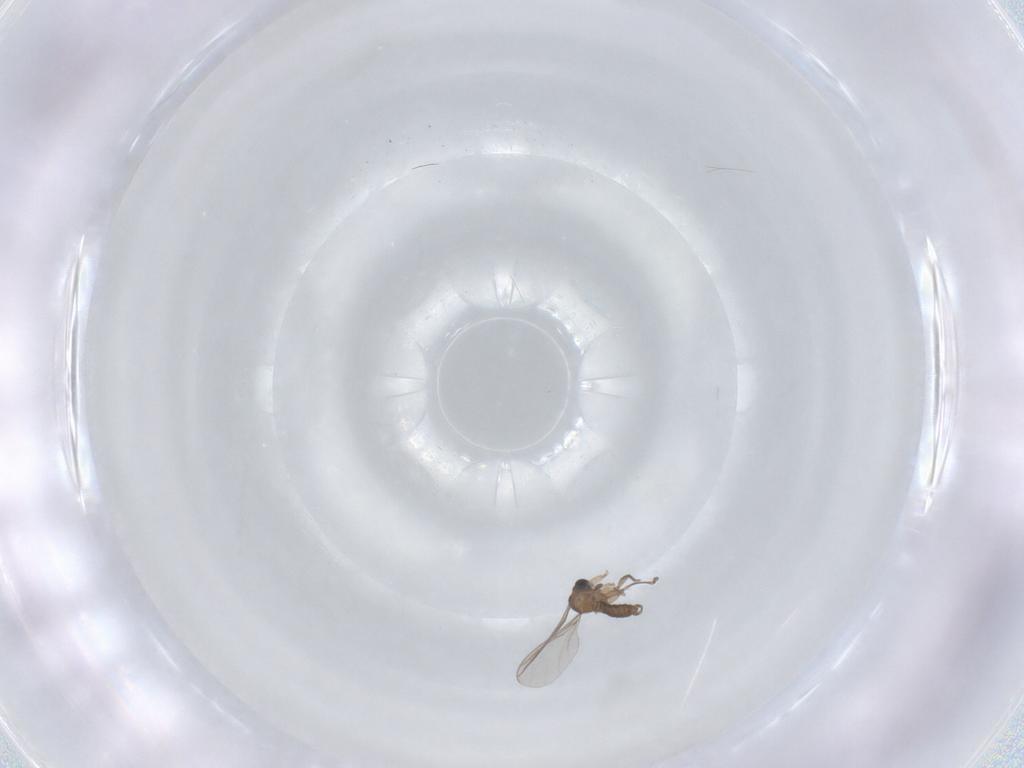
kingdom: Animalia
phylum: Arthropoda
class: Insecta
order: Diptera
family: Sciaridae
